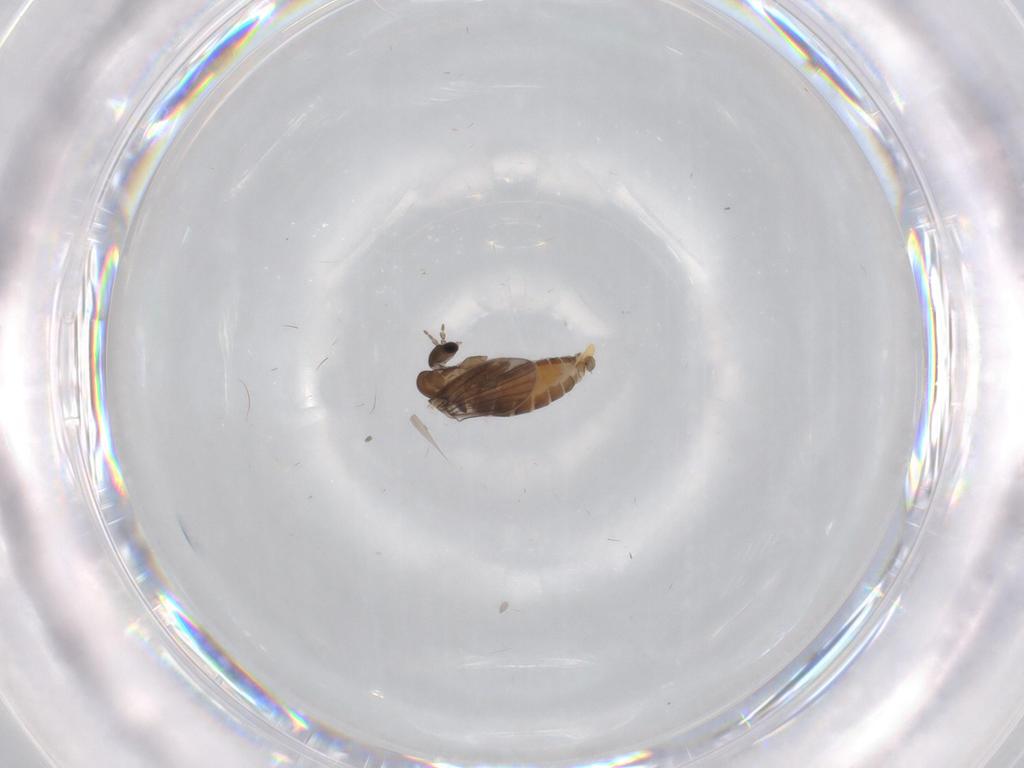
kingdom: Animalia
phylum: Arthropoda
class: Insecta
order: Diptera
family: Psychodidae
